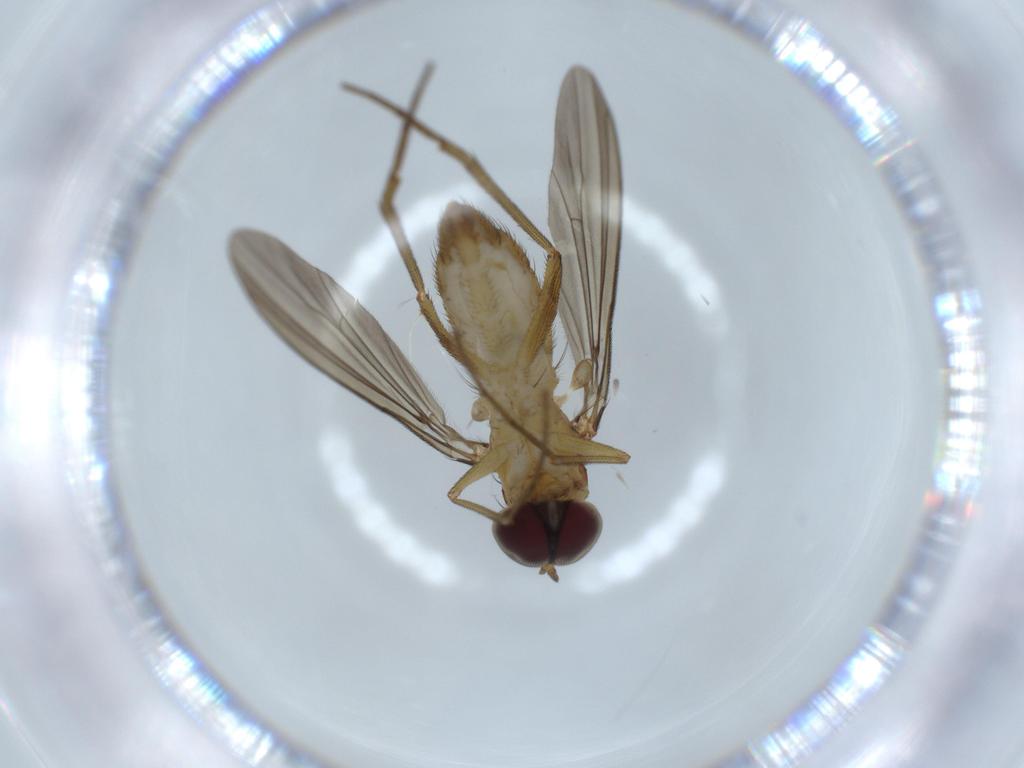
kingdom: Animalia
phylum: Arthropoda
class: Insecta
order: Diptera
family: Dolichopodidae
